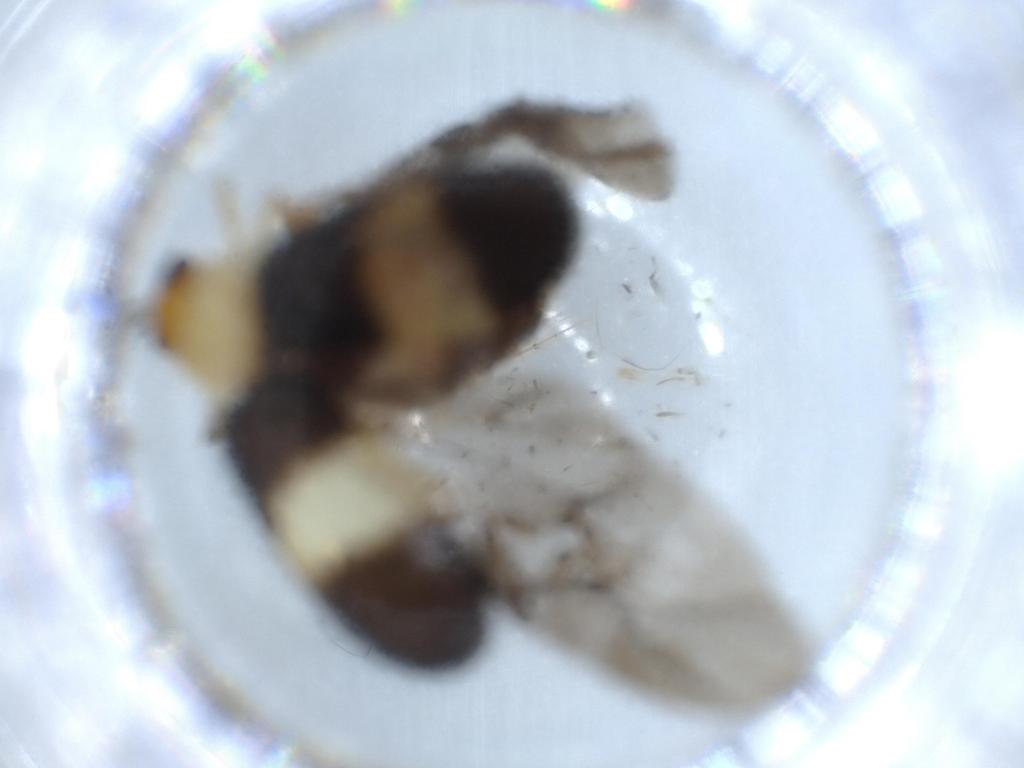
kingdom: Animalia
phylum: Arthropoda
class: Insecta
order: Coleoptera
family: Chrysomelidae
